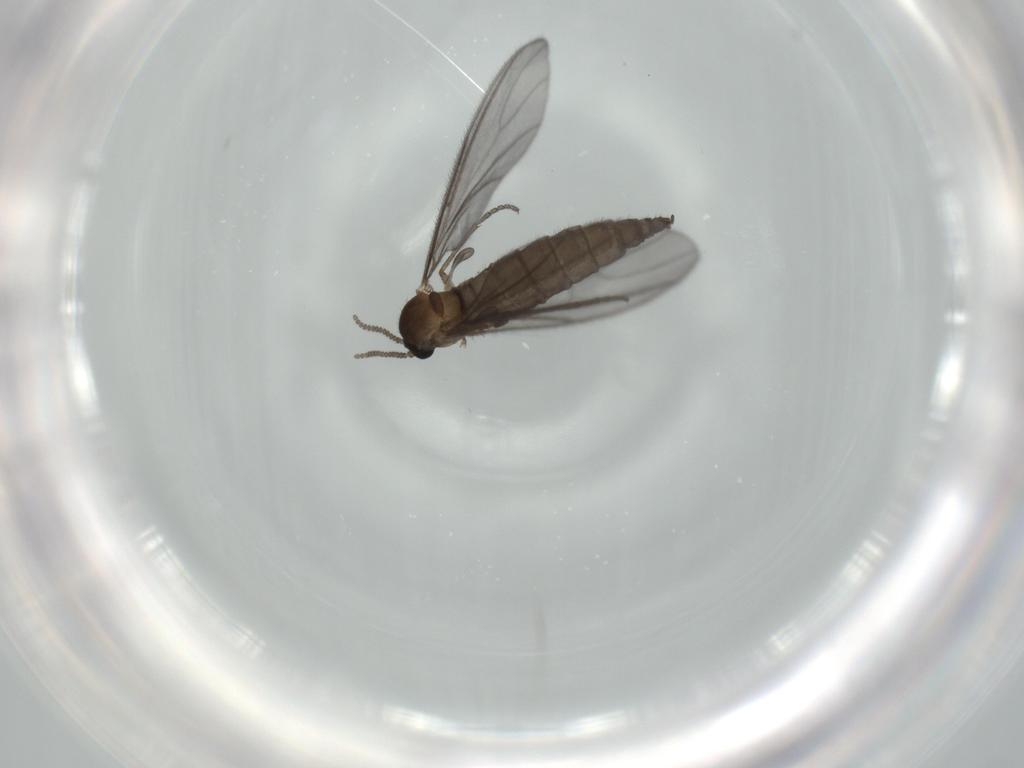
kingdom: Animalia
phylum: Arthropoda
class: Insecta
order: Diptera
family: Sciaridae
